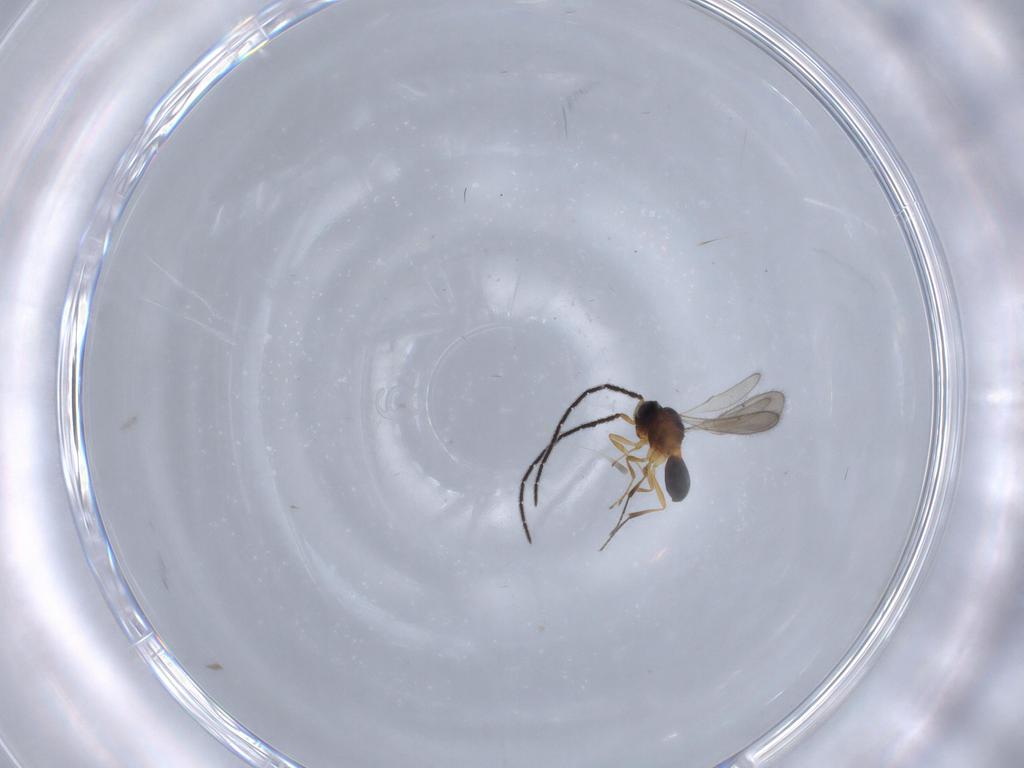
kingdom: Animalia
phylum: Arthropoda
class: Insecta
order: Hymenoptera
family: Scelionidae
